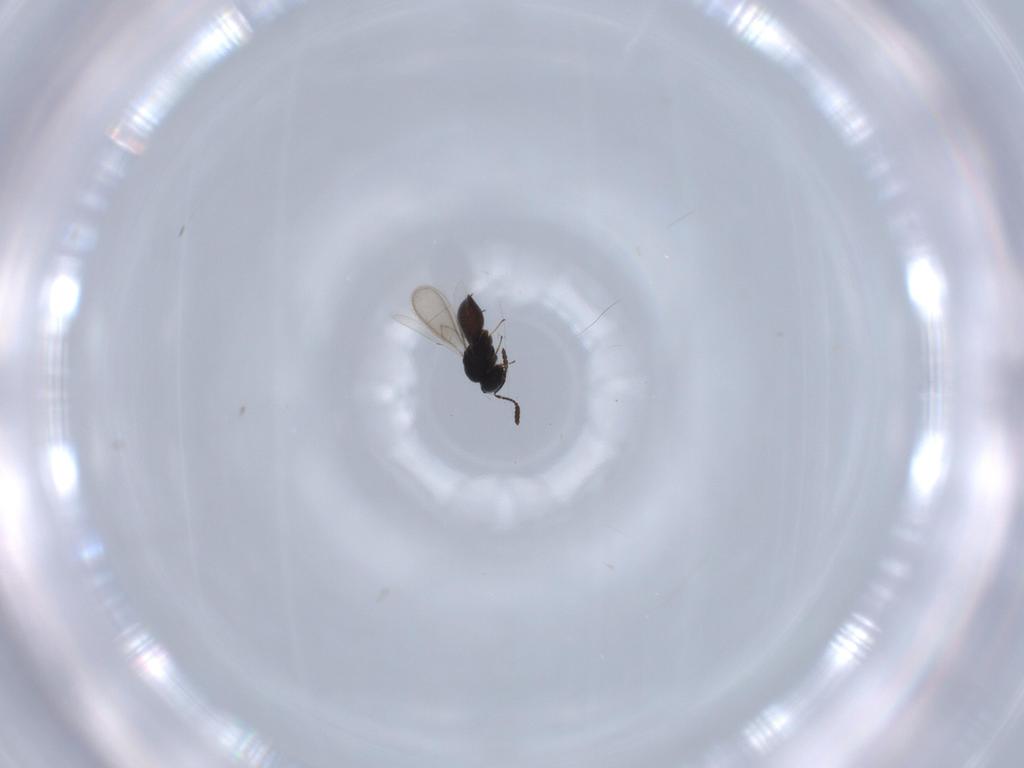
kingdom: Animalia
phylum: Arthropoda
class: Insecta
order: Hymenoptera
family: Scelionidae
